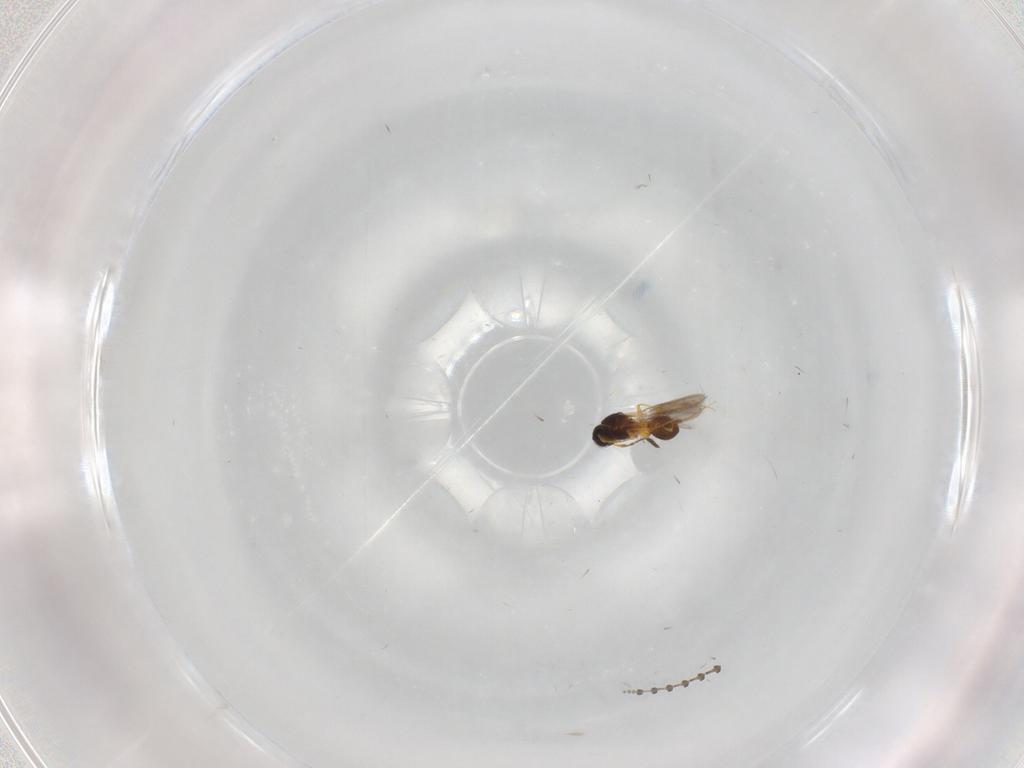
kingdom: Animalia
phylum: Arthropoda
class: Insecta
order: Hymenoptera
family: Platygastridae
